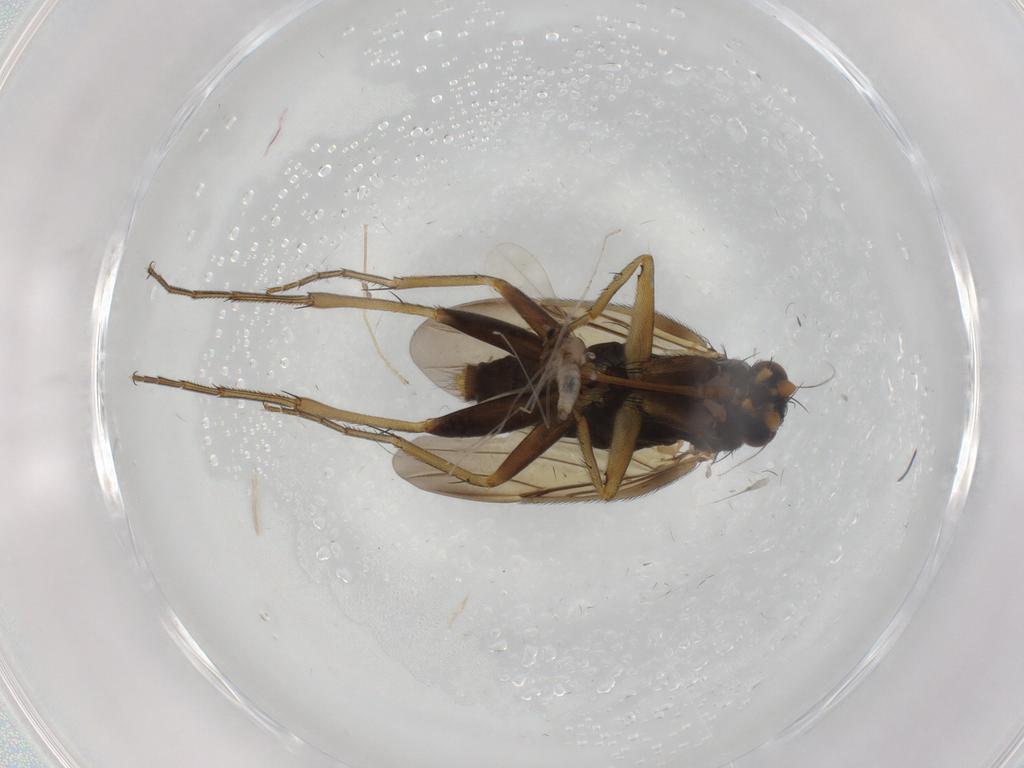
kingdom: Animalia
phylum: Arthropoda
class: Insecta
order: Diptera
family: Phoridae
